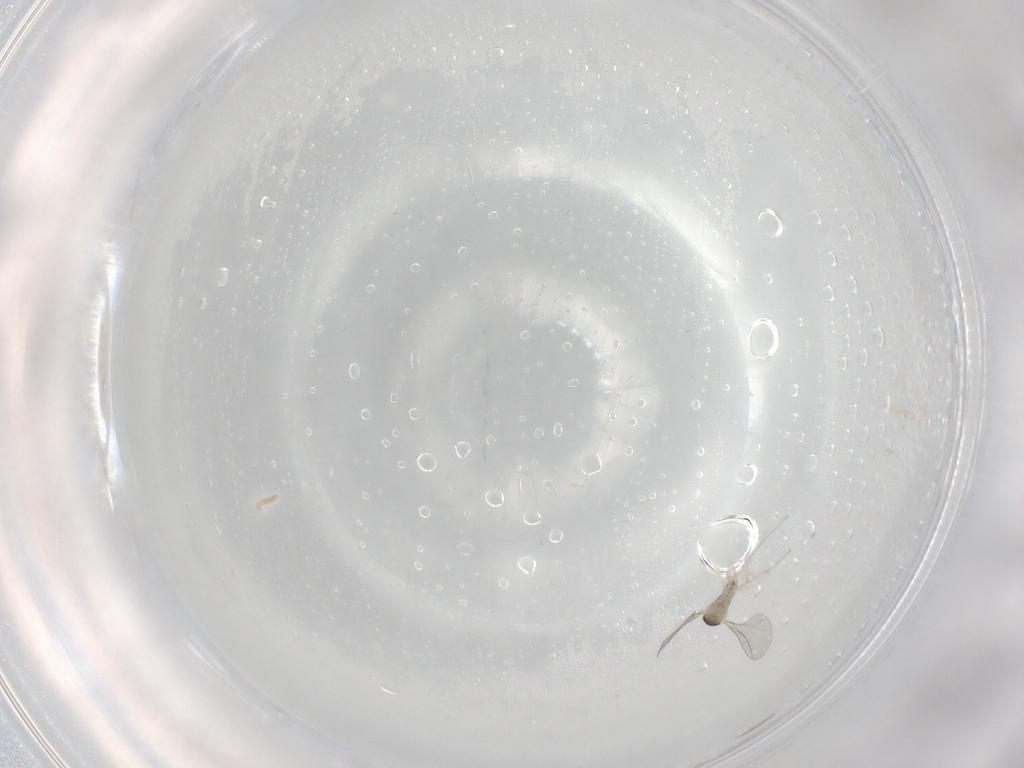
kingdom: Animalia
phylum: Arthropoda
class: Insecta
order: Diptera
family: Cecidomyiidae
